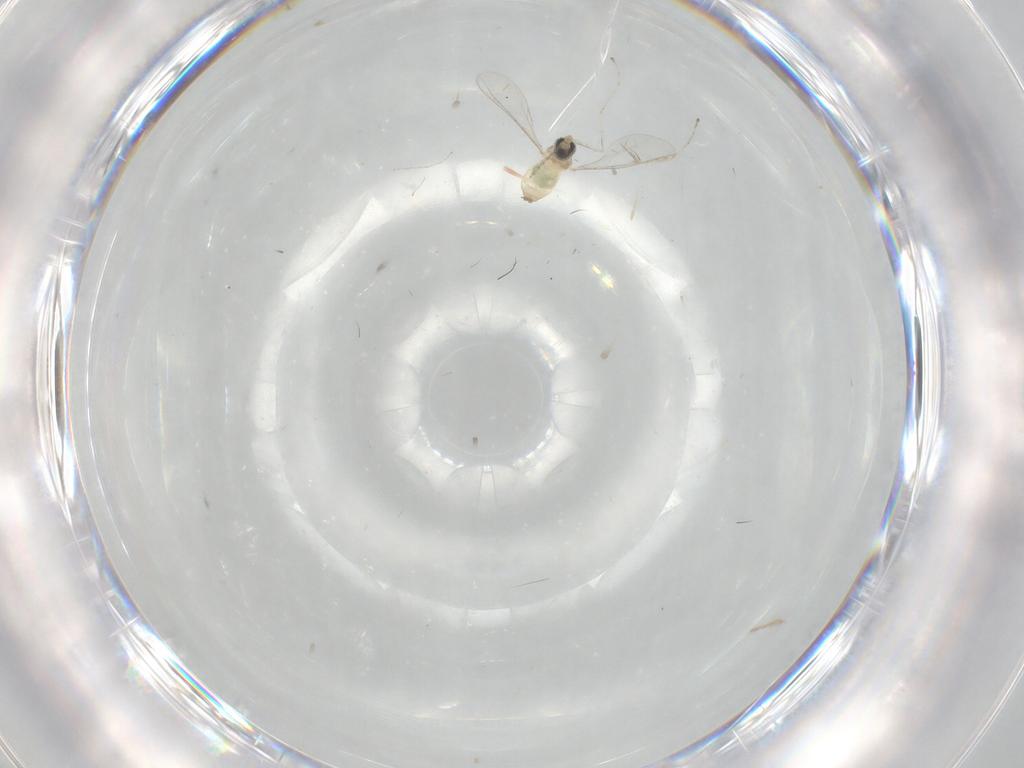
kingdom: Animalia
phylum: Arthropoda
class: Insecta
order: Diptera
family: Cecidomyiidae
